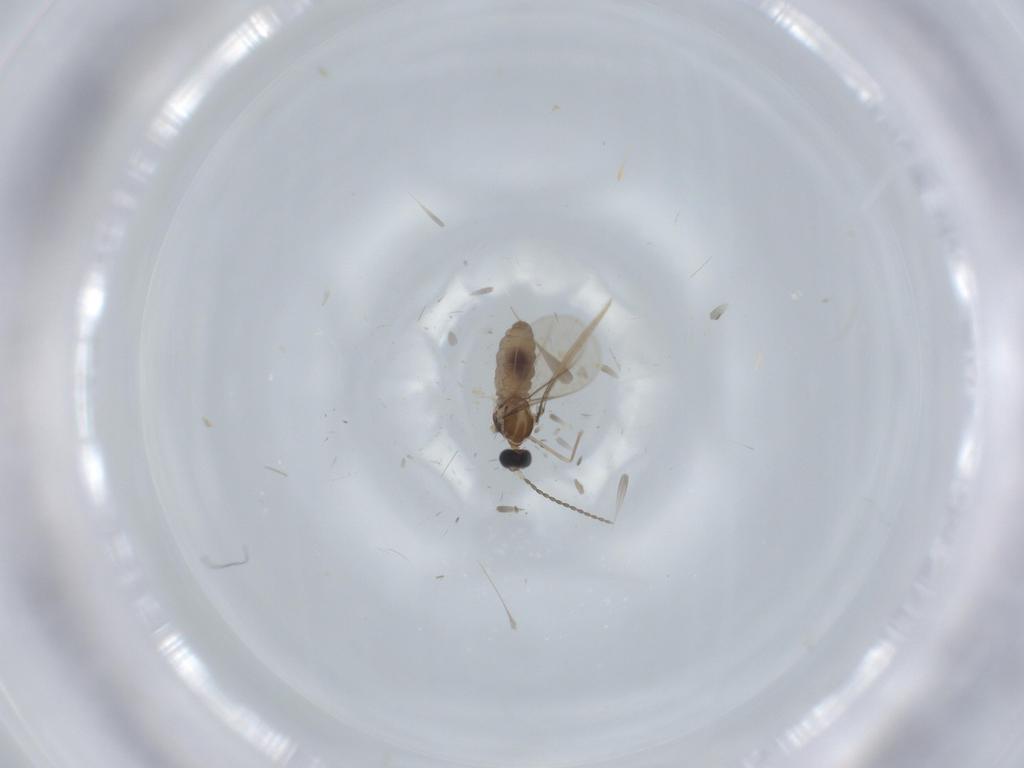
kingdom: Animalia
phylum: Arthropoda
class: Insecta
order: Diptera
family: Cecidomyiidae
